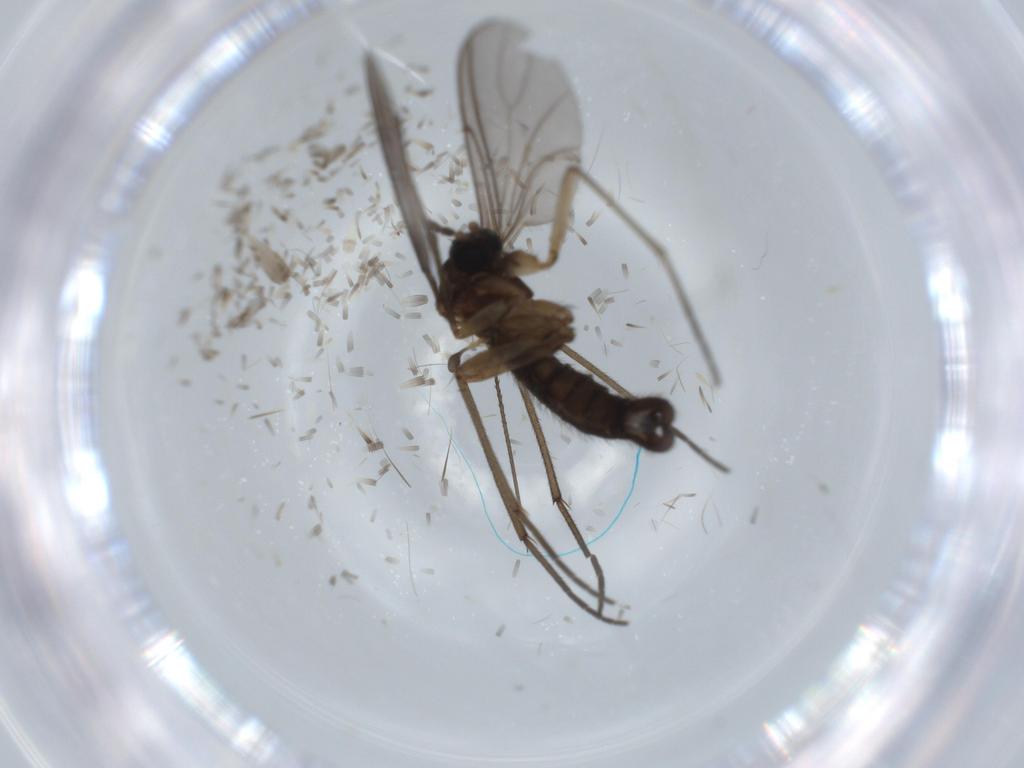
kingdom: Animalia
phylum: Arthropoda
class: Insecta
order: Diptera
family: Sciaridae
